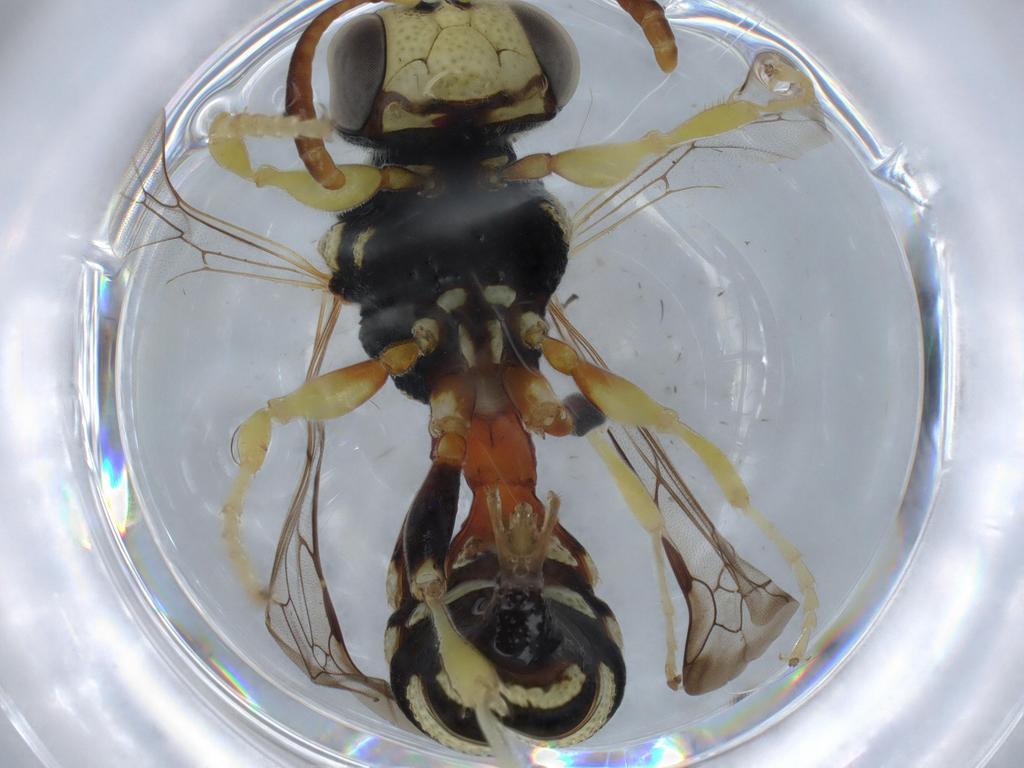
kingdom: Animalia
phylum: Arthropoda
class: Insecta
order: Hymenoptera
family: Philanthidae
